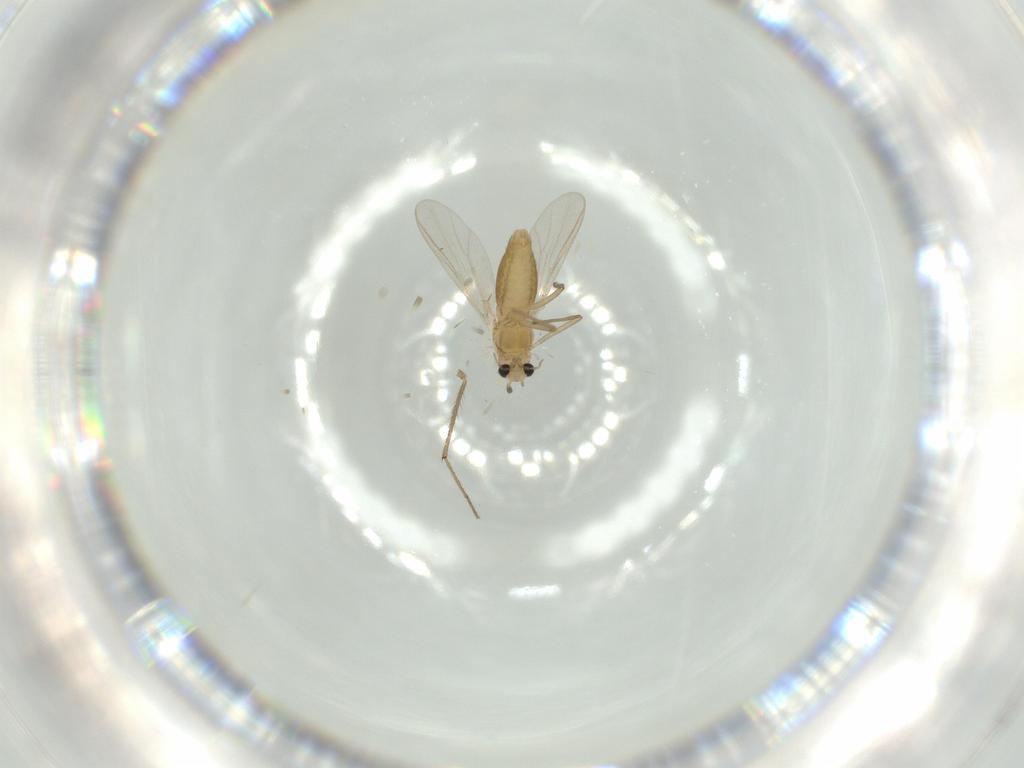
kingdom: Animalia
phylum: Arthropoda
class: Insecta
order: Diptera
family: Chironomidae
